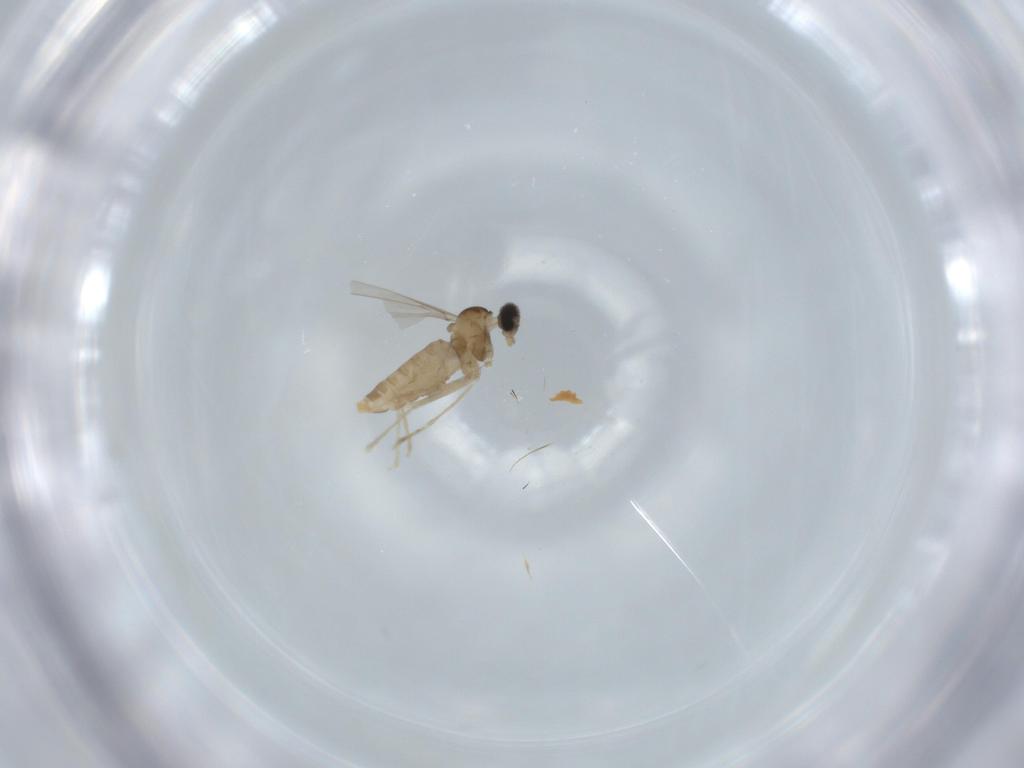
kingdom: Animalia
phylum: Arthropoda
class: Insecta
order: Diptera
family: Cecidomyiidae
